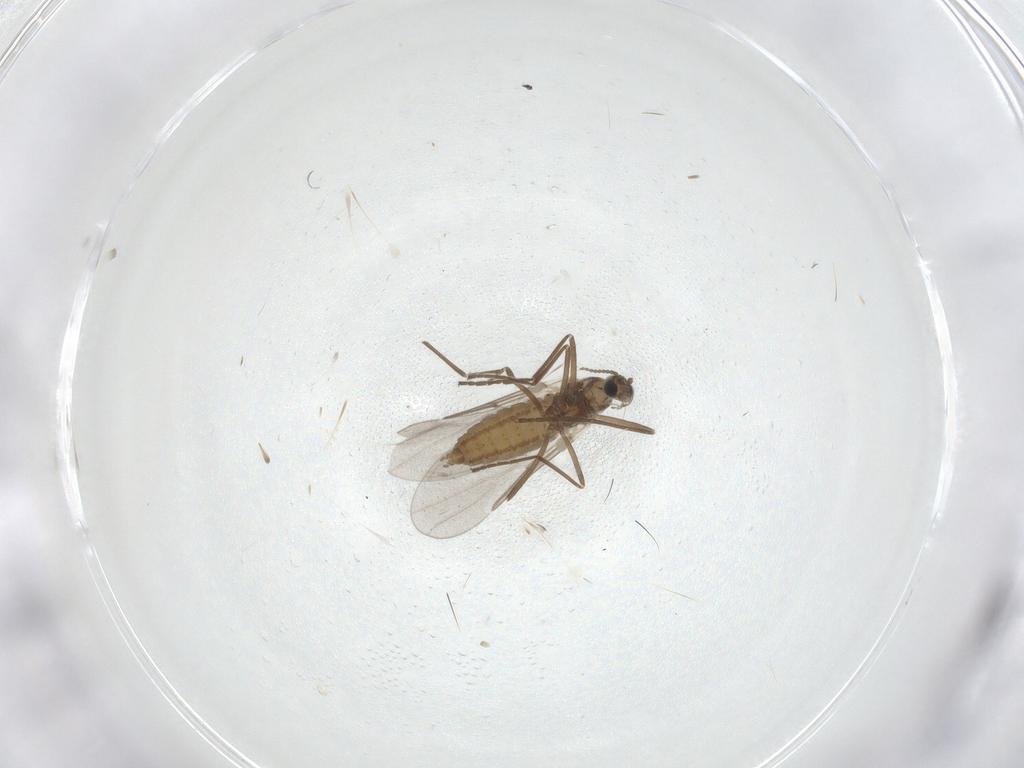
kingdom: Animalia
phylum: Arthropoda
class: Insecta
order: Diptera
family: Cecidomyiidae
